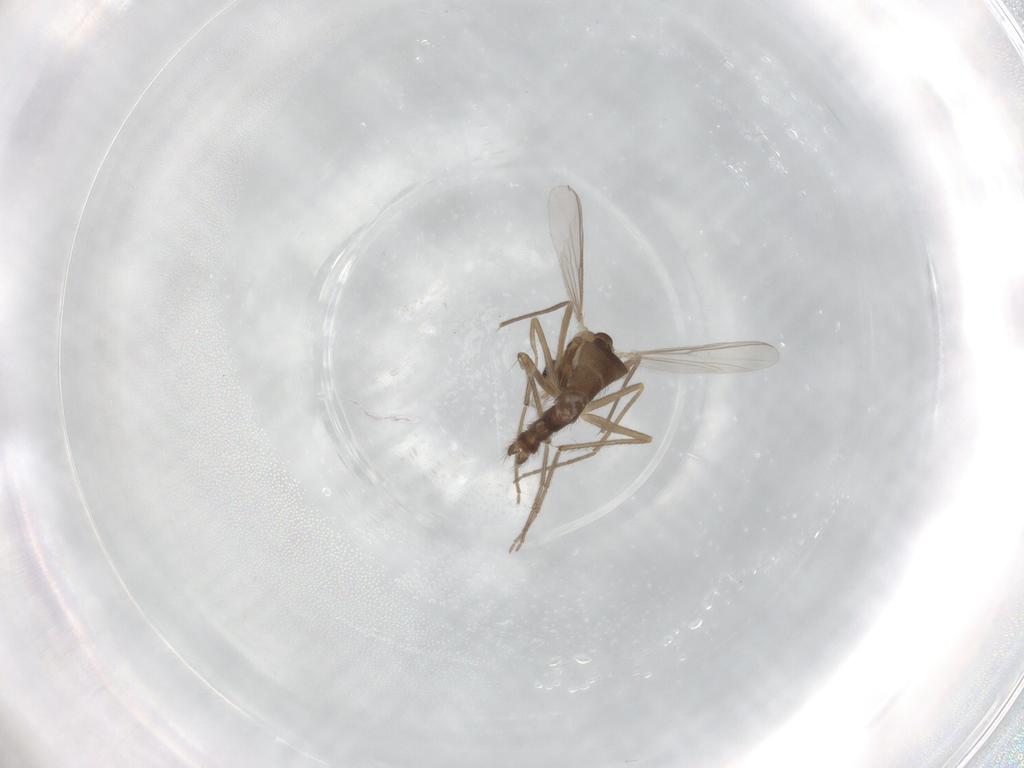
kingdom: Animalia
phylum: Arthropoda
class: Insecta
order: Diptera
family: Chironomidae
